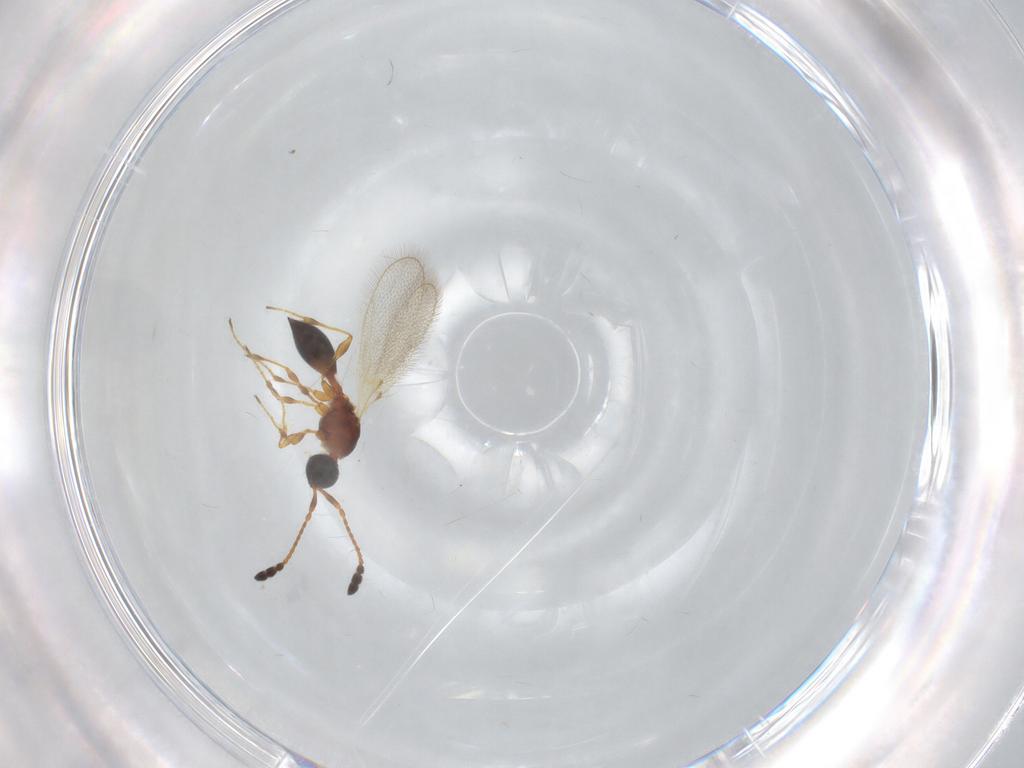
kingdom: Animalia
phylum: Arthropoda
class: Insecta
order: Hymenoptera
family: Diapriidae
